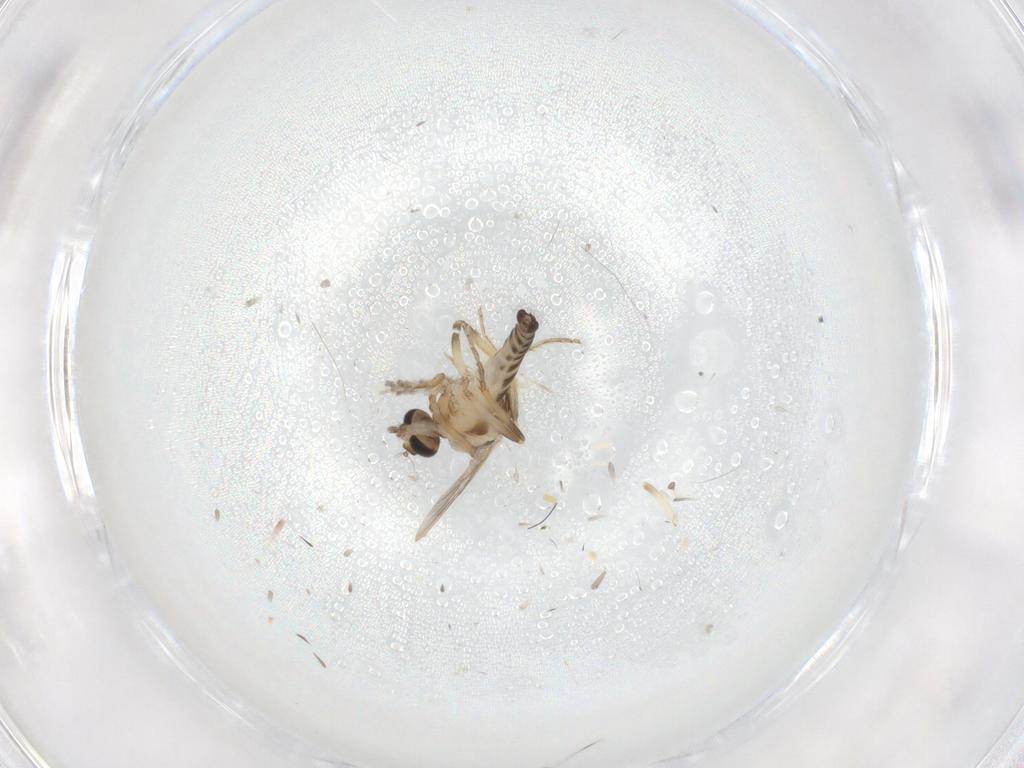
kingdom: Animalia
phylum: Arthropoda
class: Insecta
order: Diptera
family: Ceratopogonidae
